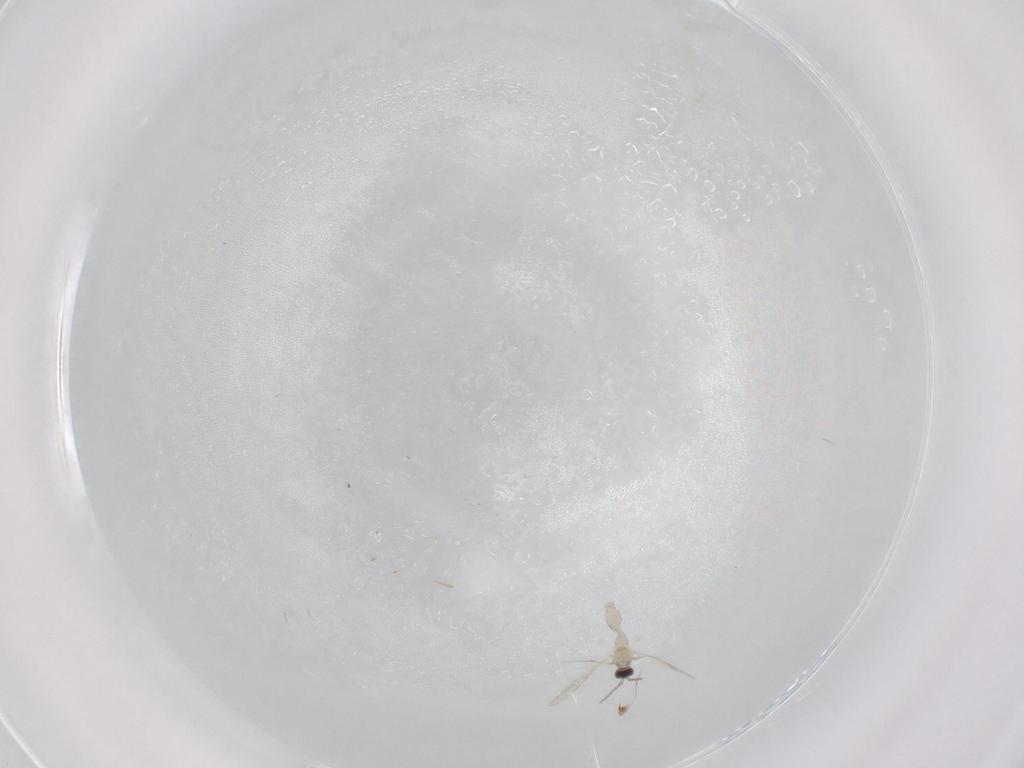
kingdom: Animalia
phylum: Arthropoda
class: Insecta
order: Diptera
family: Cecidomyiidae
